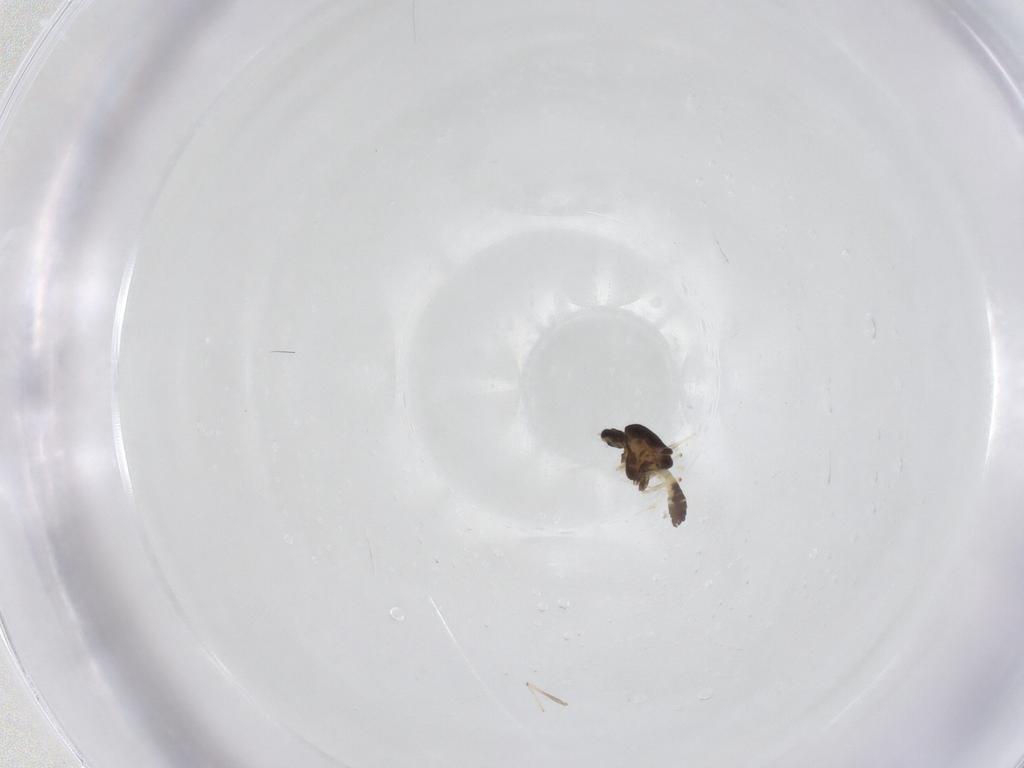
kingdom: Animalia
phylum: Arthropoda
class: Insecta
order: Diptera
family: Chironomidae
